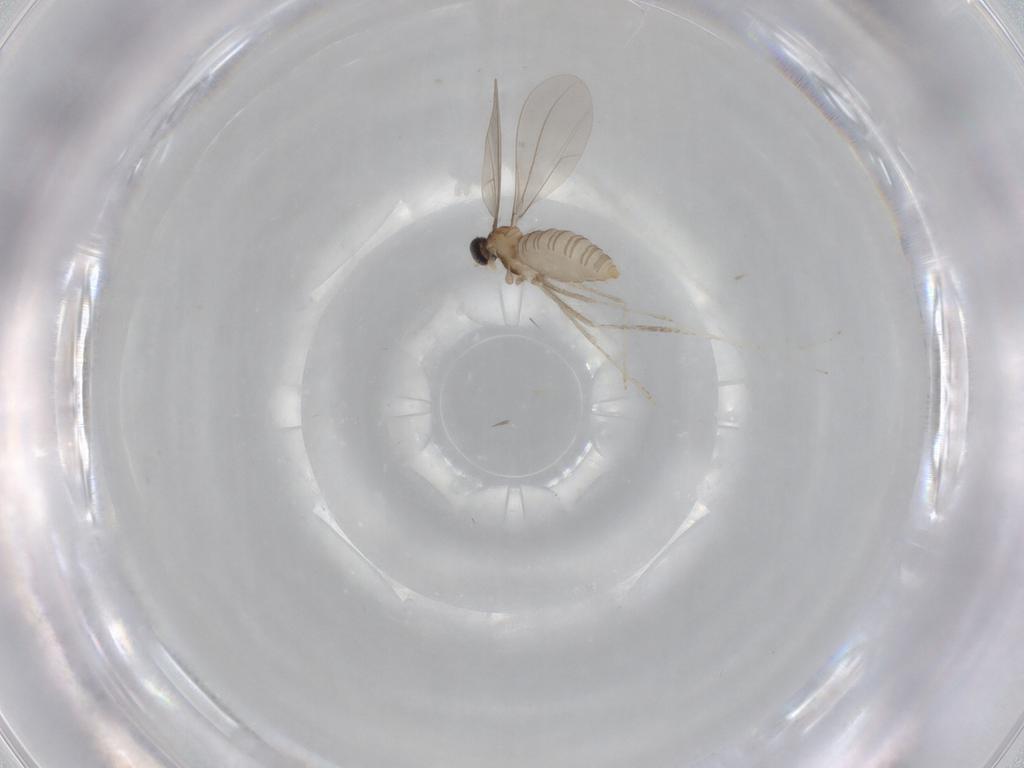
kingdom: Animalia
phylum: Arthropoda
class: Insecta
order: Diptera
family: Cecidomyiidae
